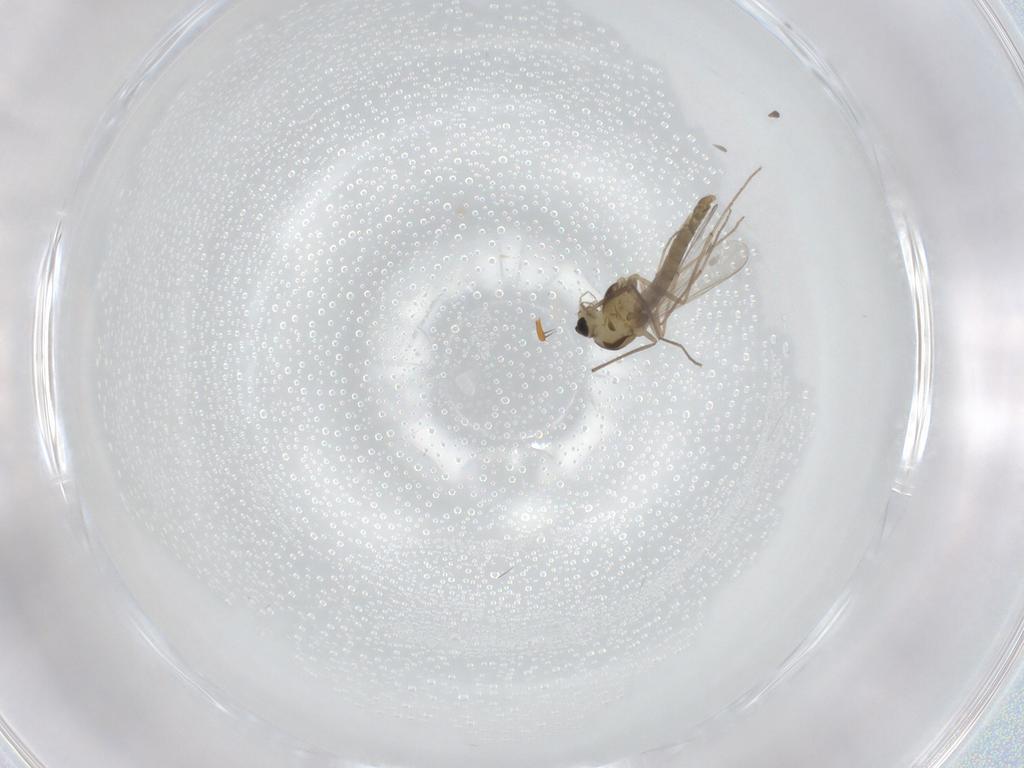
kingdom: Animalia
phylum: Arthropoda
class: Insecta
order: Diptera
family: Chironomidae
